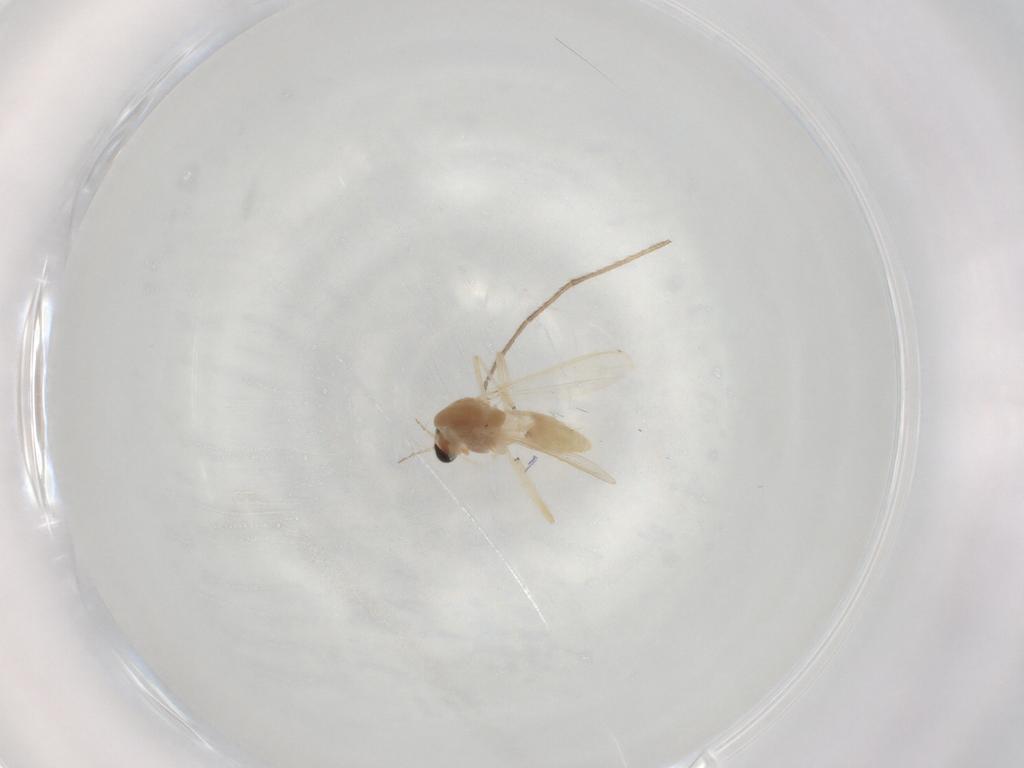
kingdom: Animalia
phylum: Arthropoda
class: Insecta
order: Diptera
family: Chironomidae
